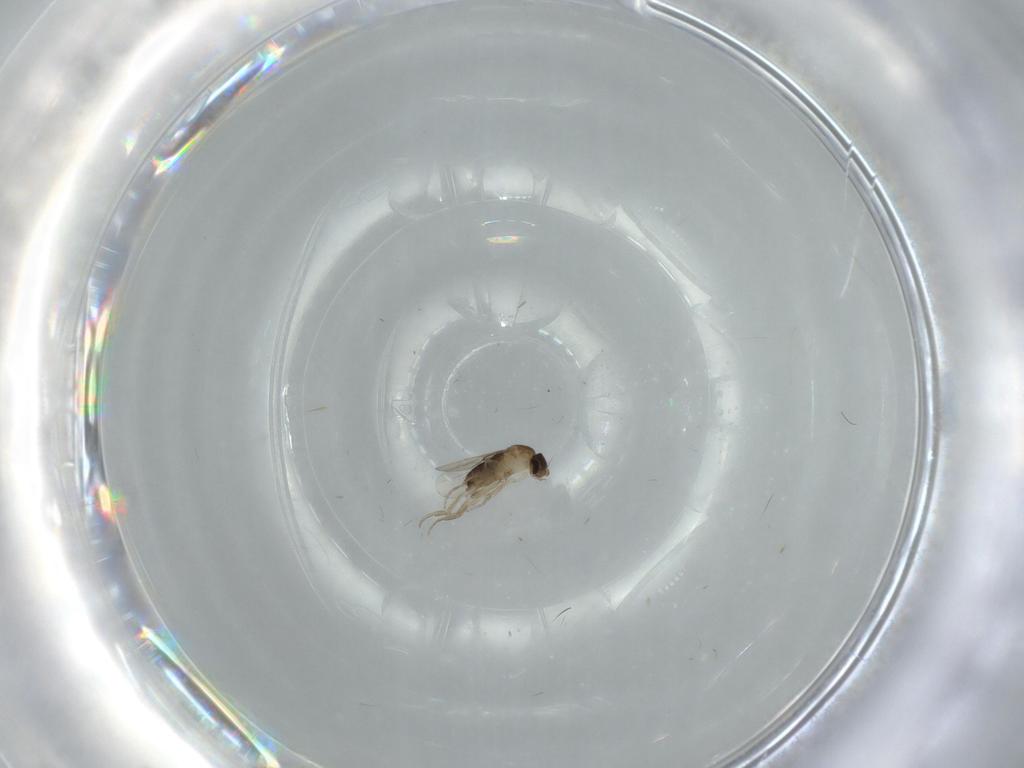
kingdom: Animalia
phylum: Arthropoda
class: Insecta
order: Diptera
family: Phoridae
